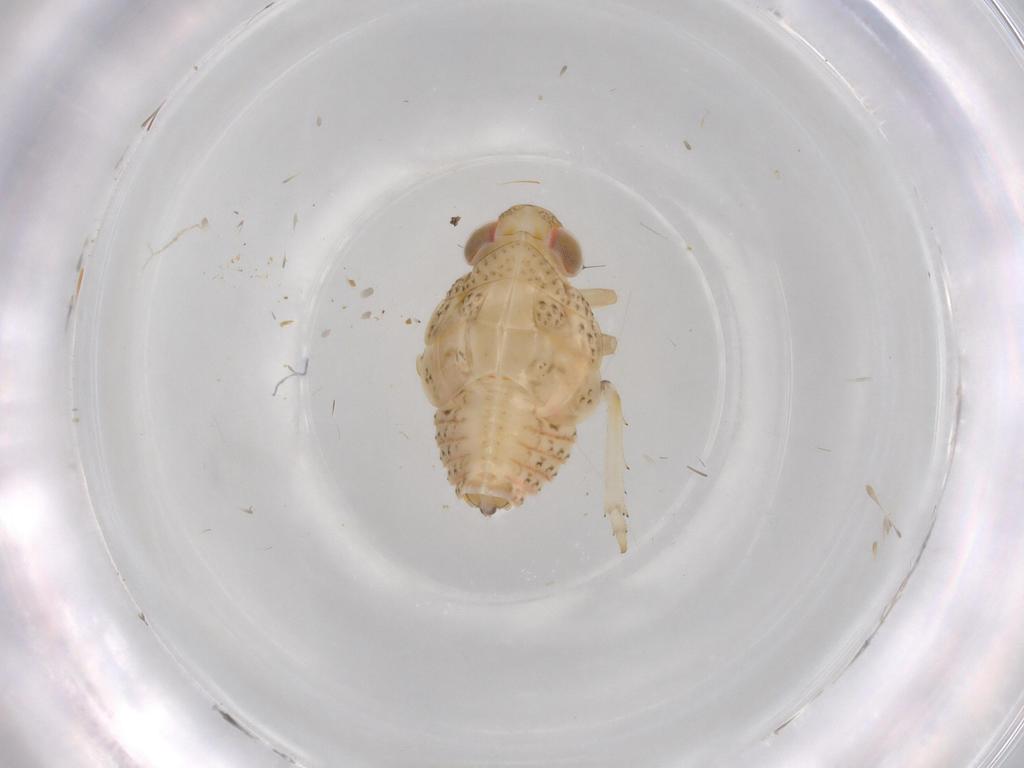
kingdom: Animalia
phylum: Arthropoda
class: Insecta
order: Hemiptera
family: Issidae
